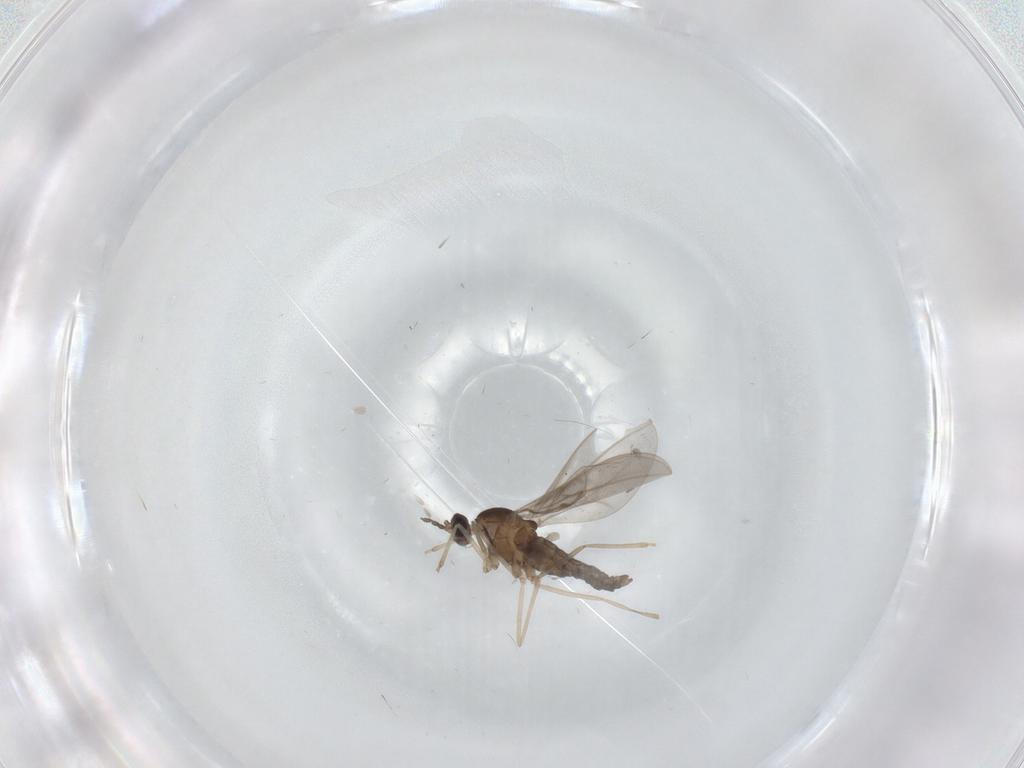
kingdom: Animalia
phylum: Arthropoda
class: Insecta
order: Diptera
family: Cecidomyiidae
